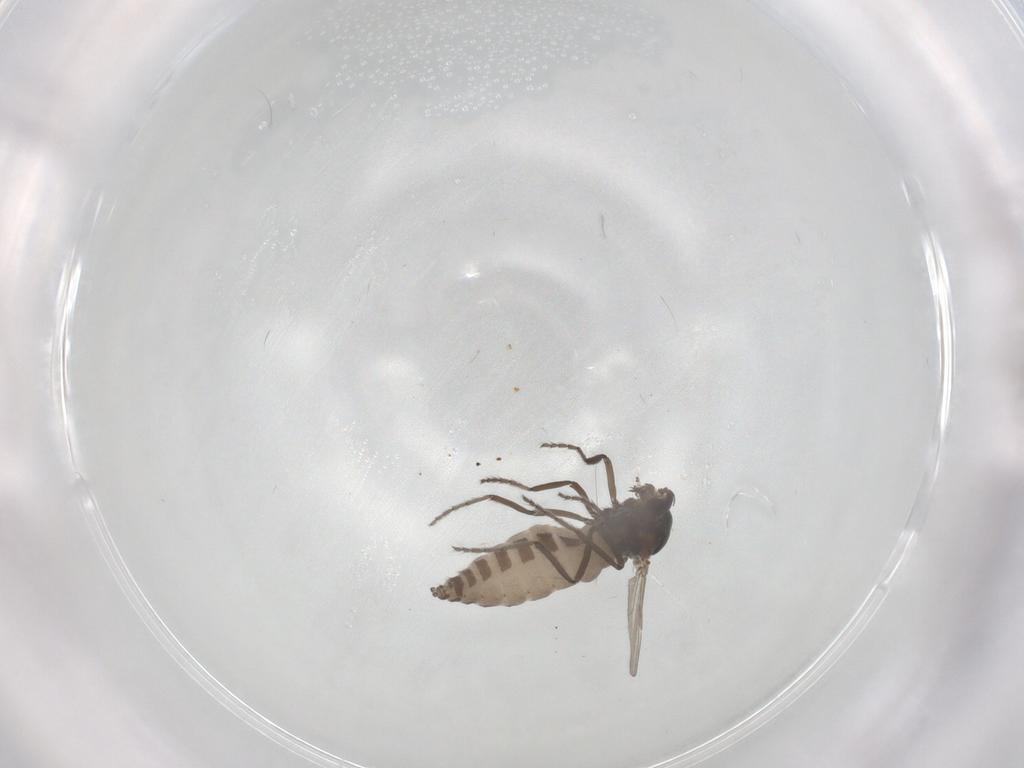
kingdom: Animalia
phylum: Arthropoda
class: Insecta
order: Diptera
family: Ceratopogonidae
